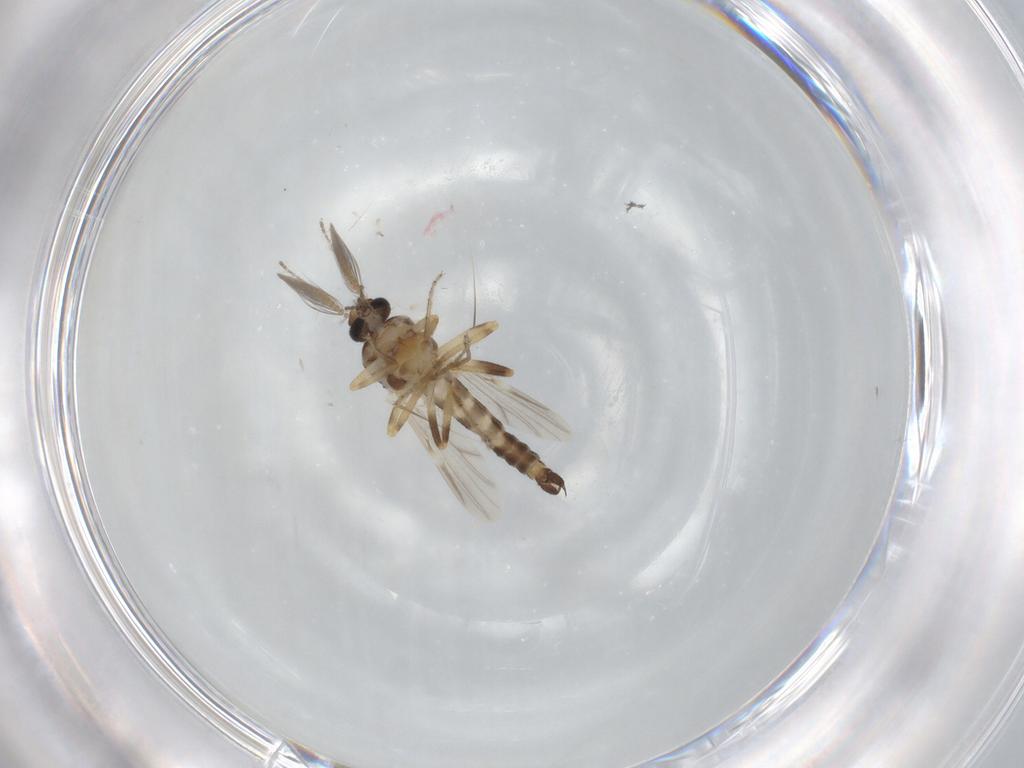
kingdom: Animalia
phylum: Arthropoda
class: Insecta
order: Diptera
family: Ceratopogonidae
